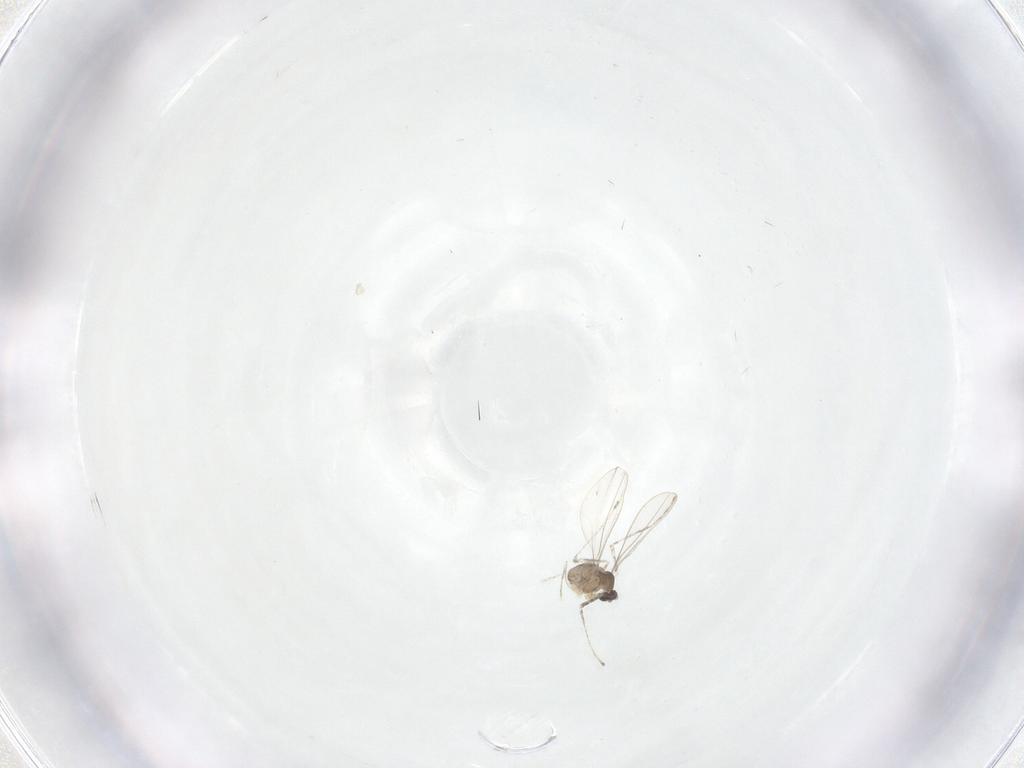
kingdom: Animalia
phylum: Arthropoda
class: Insecta
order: Diptera
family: Cecidomyiidae
